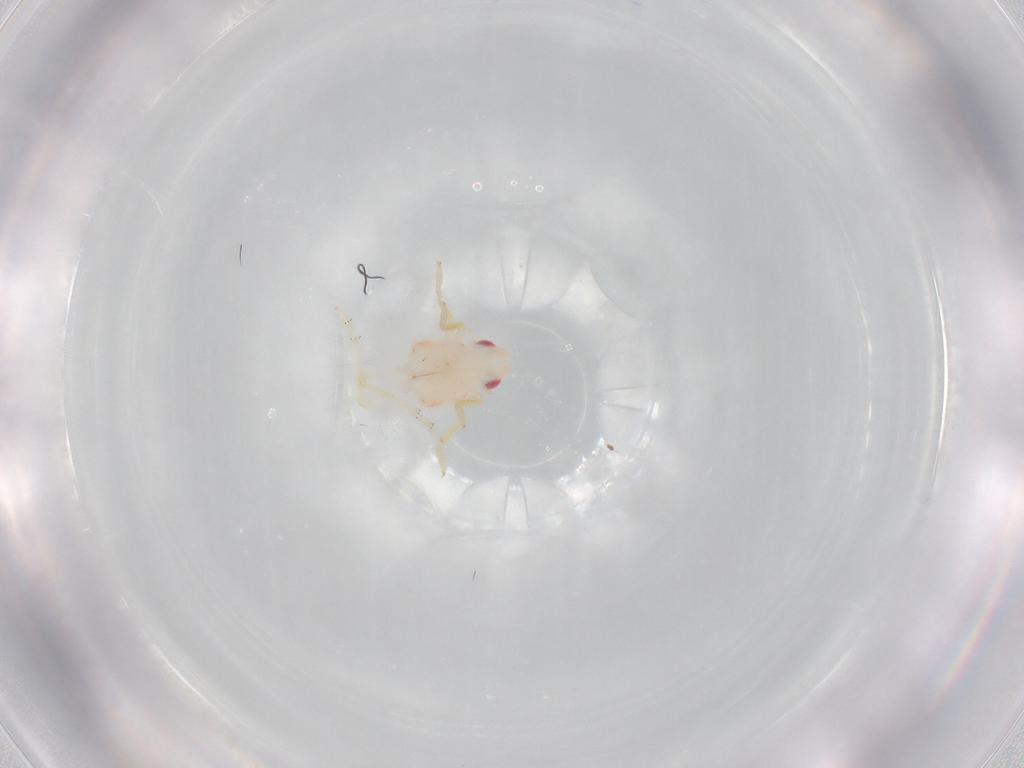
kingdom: Animalia
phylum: Arthropoda
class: Insecta
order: Hemiptera
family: Tropiduchidae
